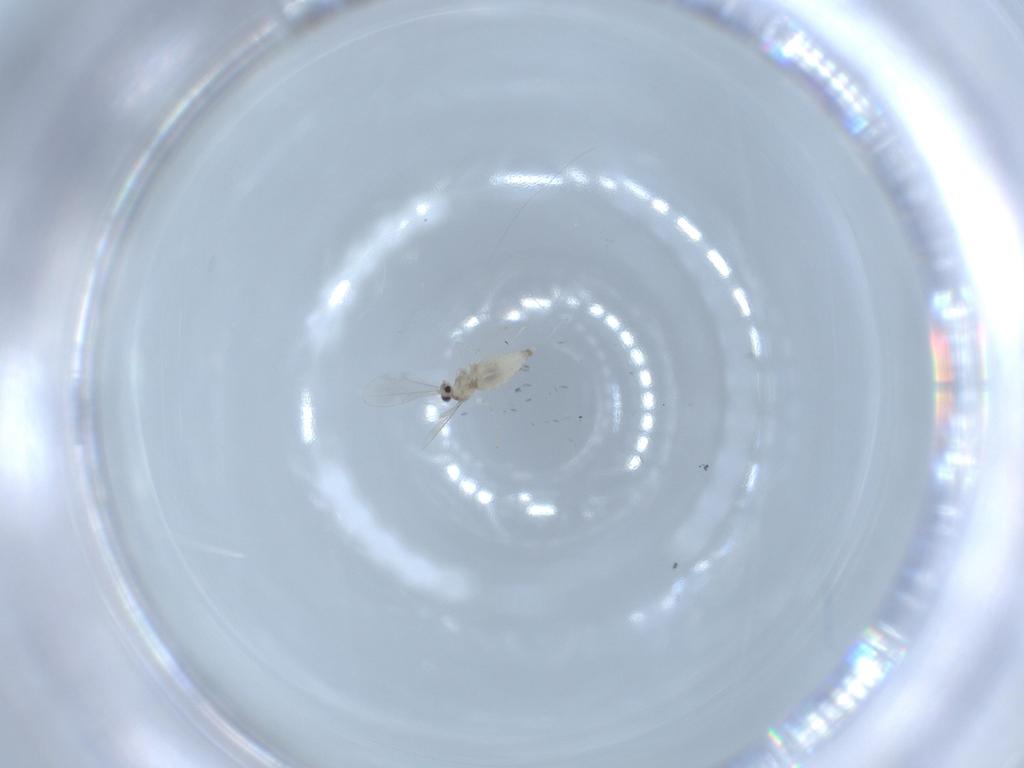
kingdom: Animalia
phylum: Arthropoda
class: Insecta
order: Diptera
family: Cecidomyiidae
